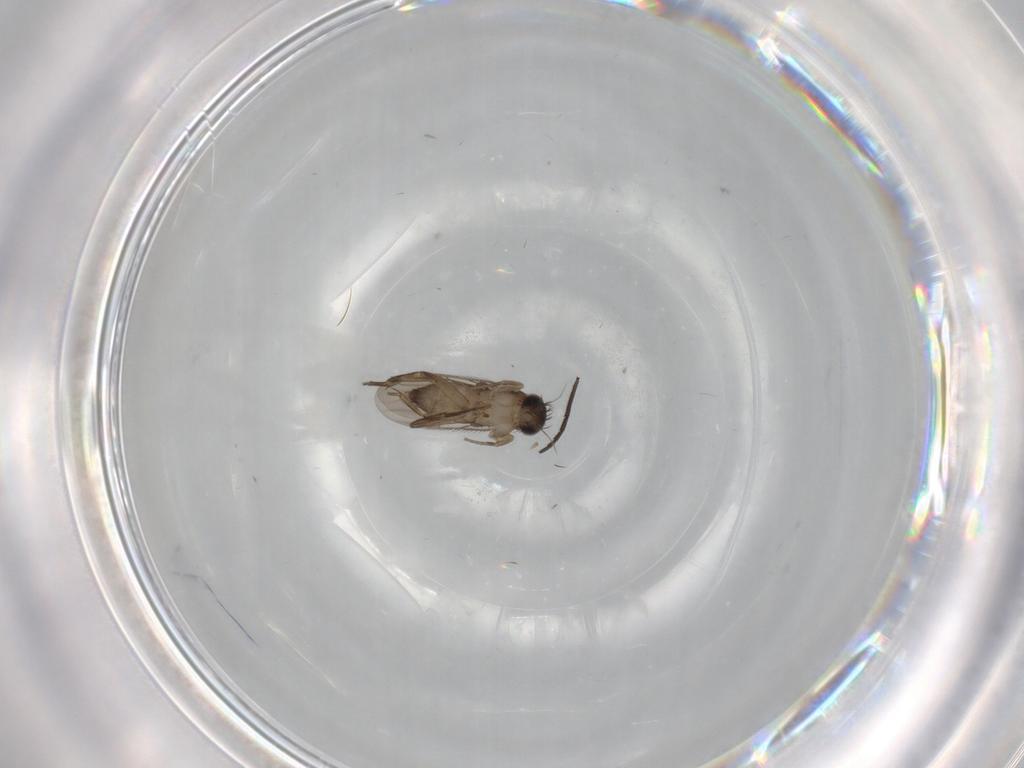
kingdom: Animalia
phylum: Arthropoda
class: Insecta
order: Diptera
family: Phoridae
